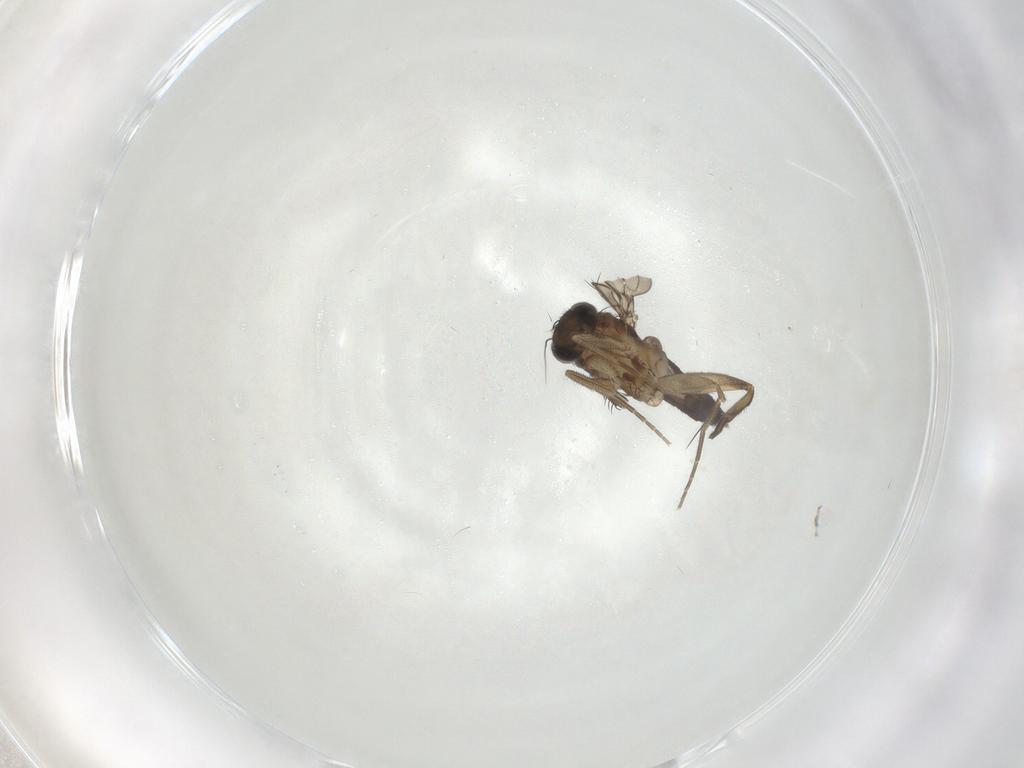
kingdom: Animalia
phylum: Arthropoda
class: Insecta
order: Diptera
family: Phoridae
